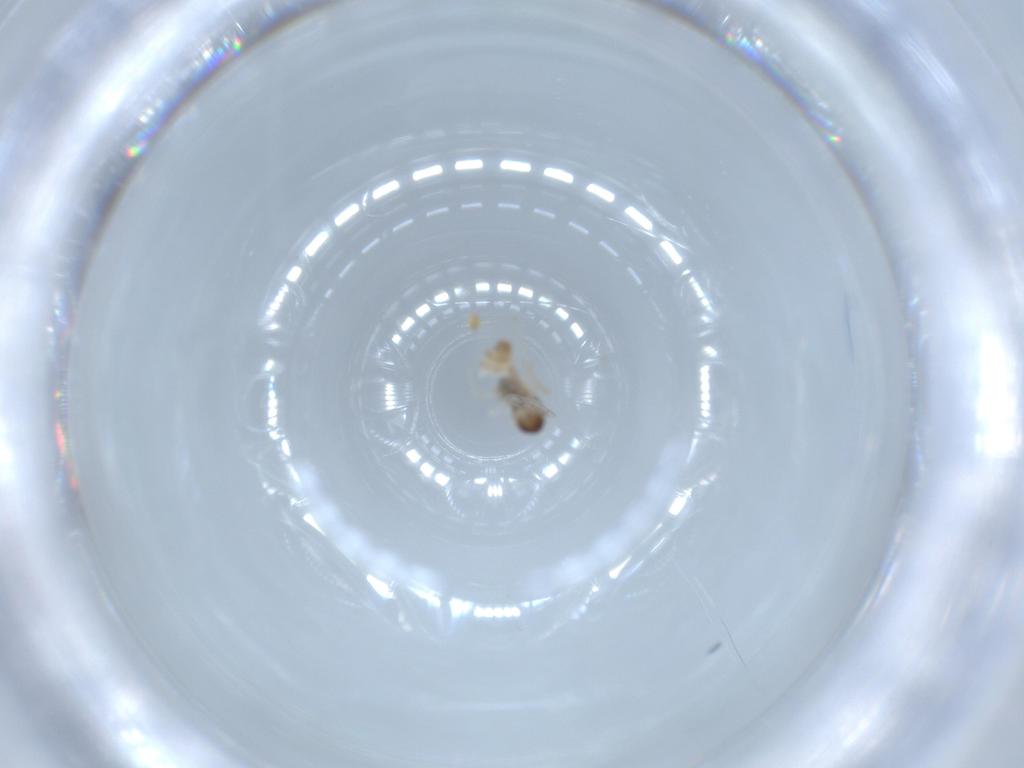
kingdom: Animalia
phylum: Arthropoda
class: Insecta
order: Diptera
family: Cecidomyiidae
